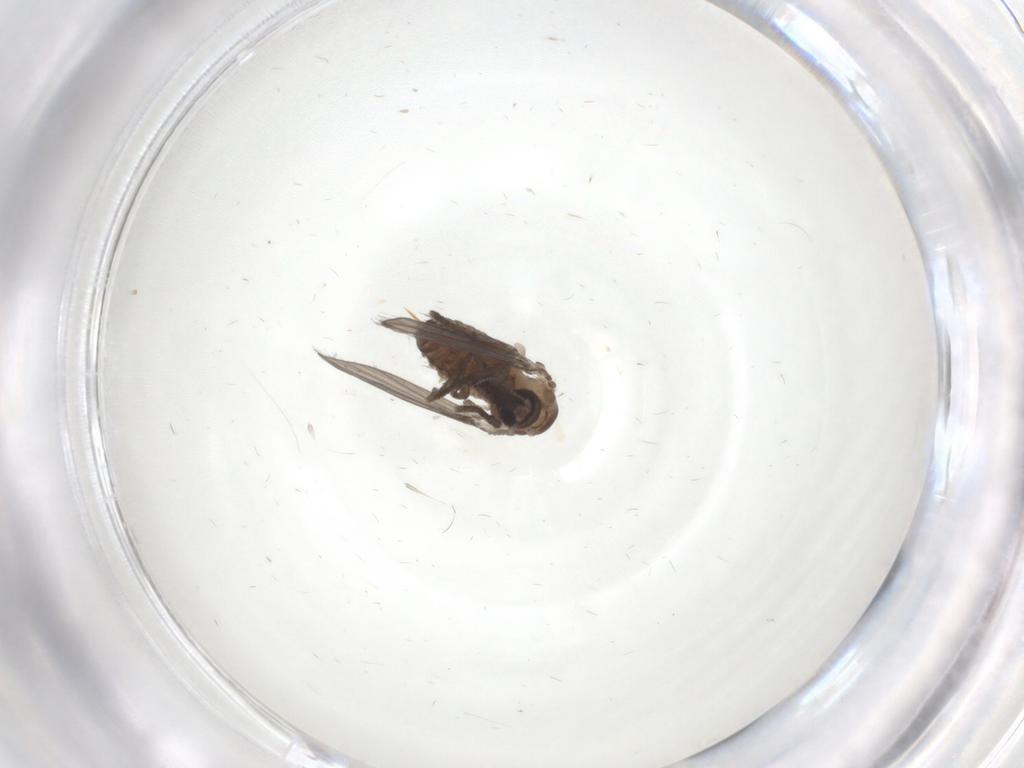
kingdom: Animalia
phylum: Arthropoda
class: Insecta
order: Diptera
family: Psychodidae
